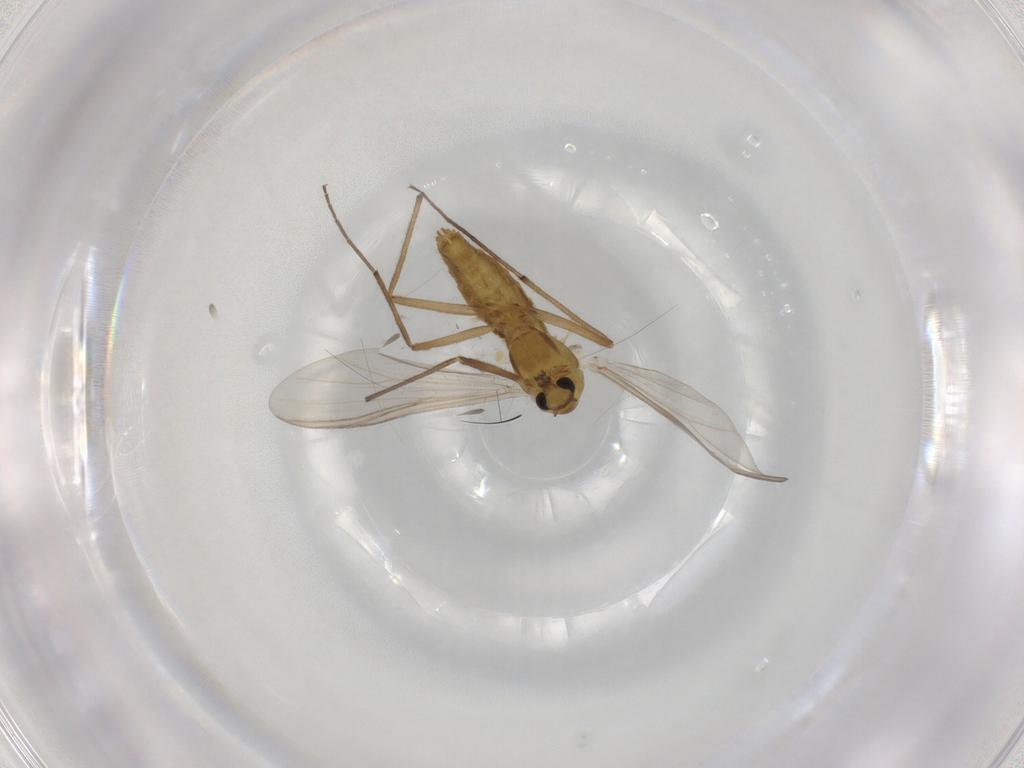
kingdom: Animalia
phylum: Arthropoda
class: Insecta
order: Diptera
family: Chironomidae
